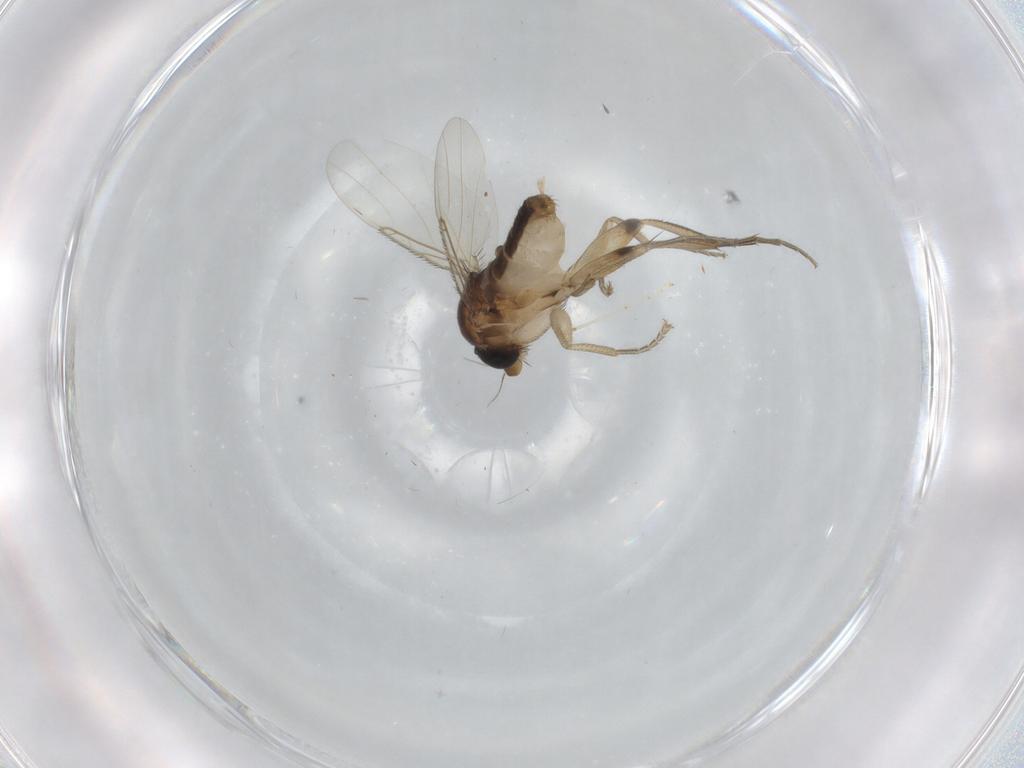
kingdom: Animalia
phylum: Arthropoda
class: Insecta
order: Diptera
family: Phoridae
